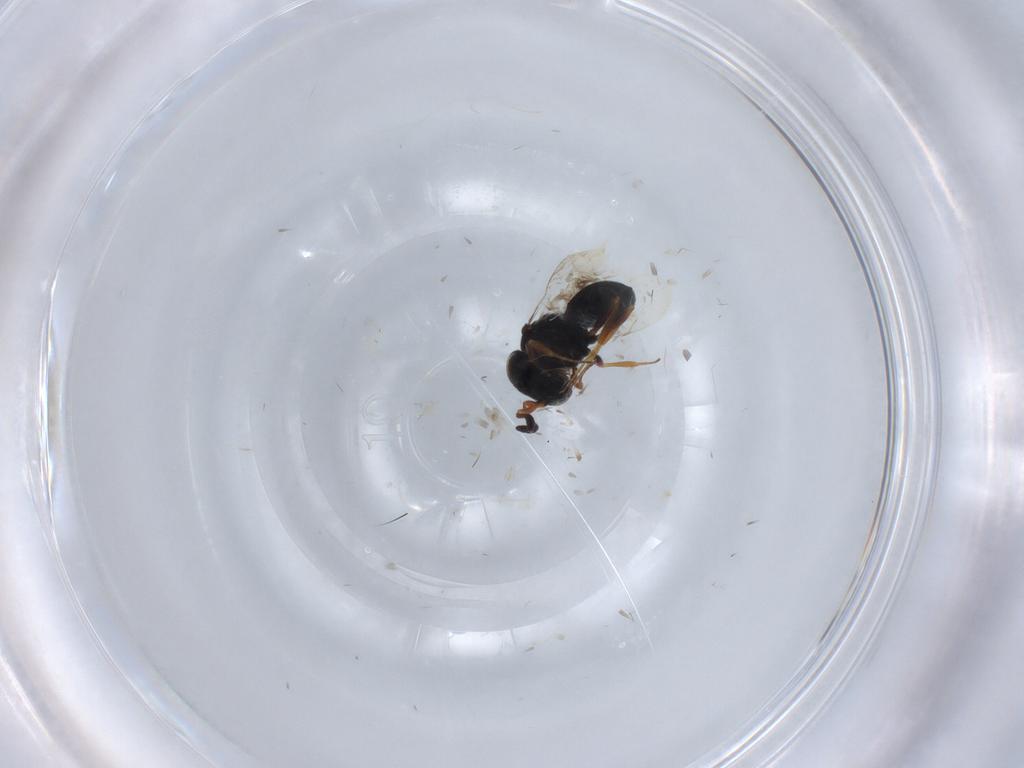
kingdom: Animalia
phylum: Arthropoda
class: Insecta
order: Hymenoptera
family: Scelionidae
